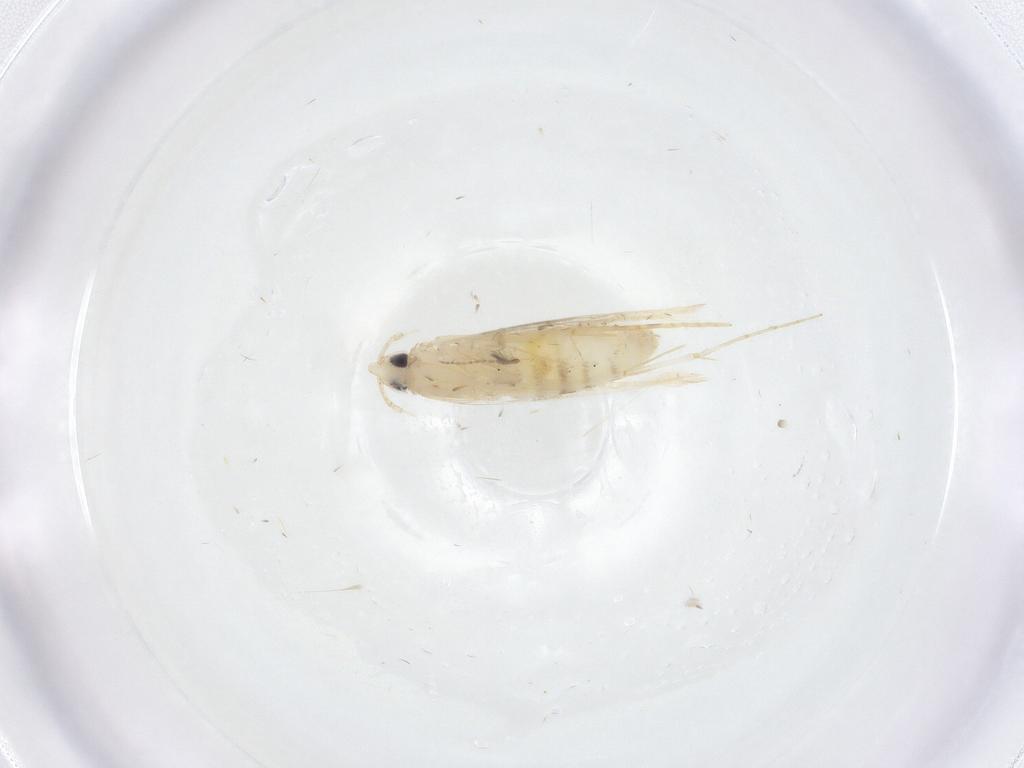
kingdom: Animalia
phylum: Arthropoda
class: Insecta
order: Lepidoptera
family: Tineidae
